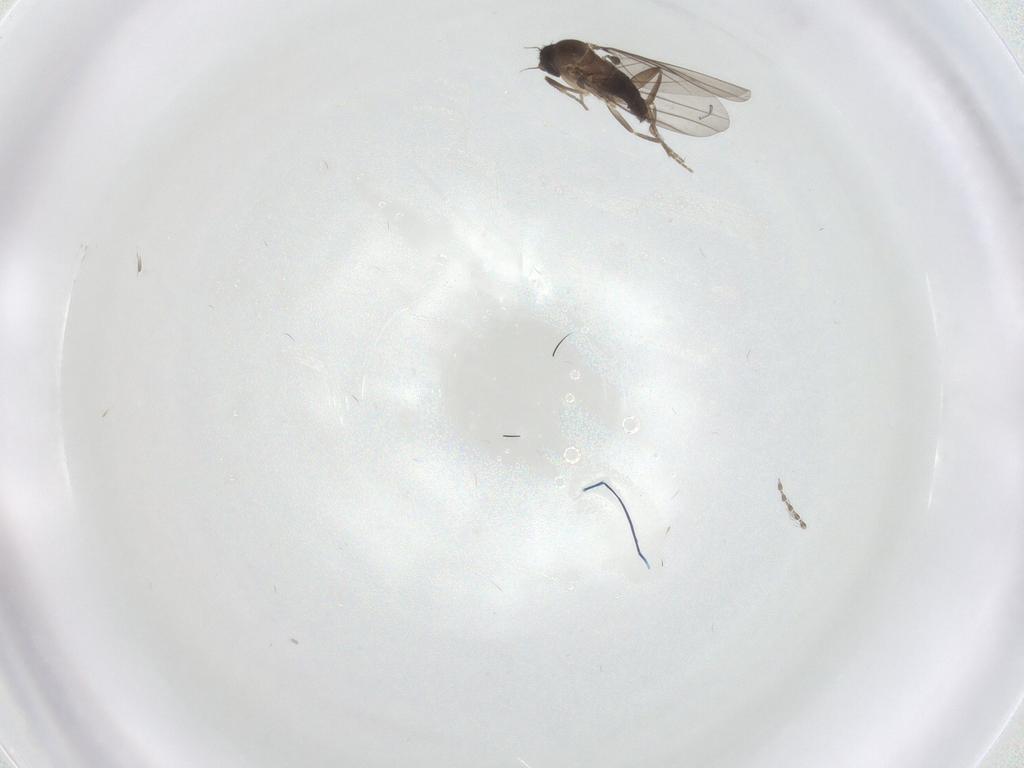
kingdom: Animalia
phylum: Arthropoda
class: Insecta
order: Diptera
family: Phoridae
